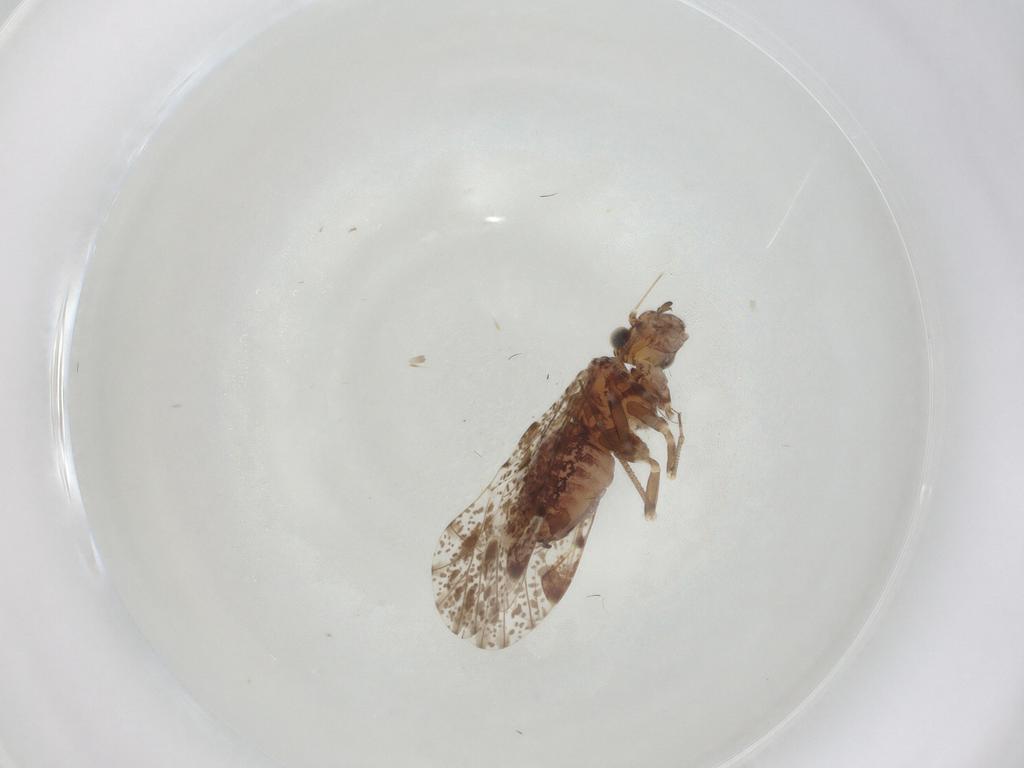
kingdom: Animalia
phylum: Arthropoda
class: Insecta
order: Psocodea
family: Psocidae
